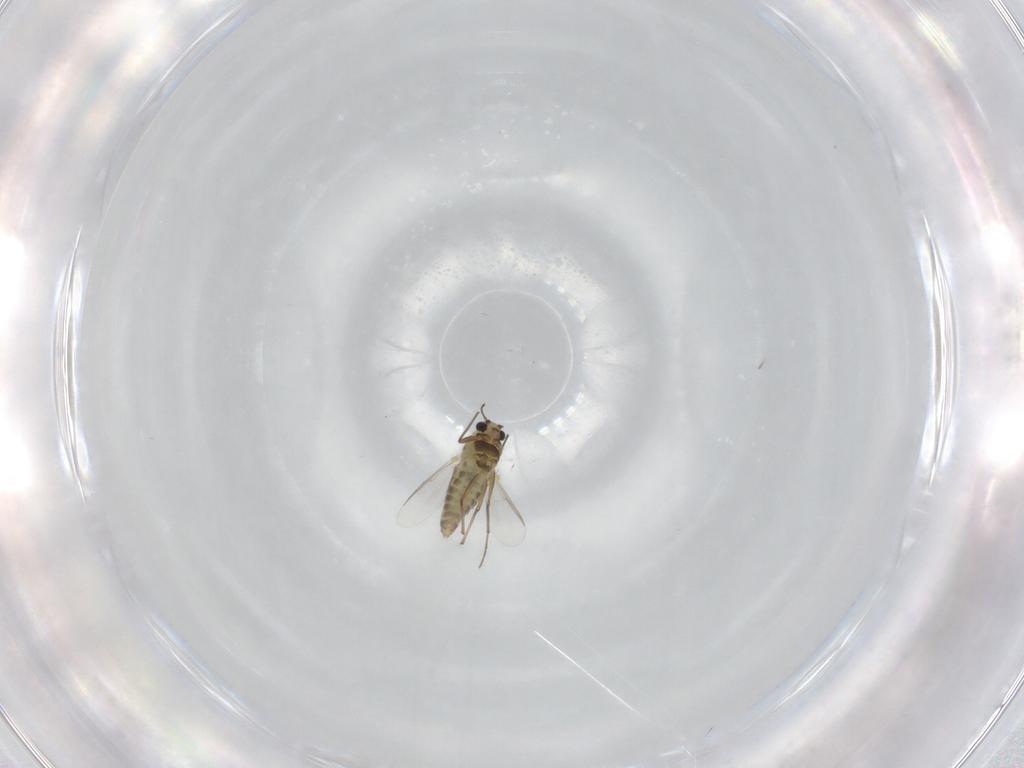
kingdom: Animalia
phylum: Arthropoda
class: Insecta
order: Diptera
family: Chironomidae
